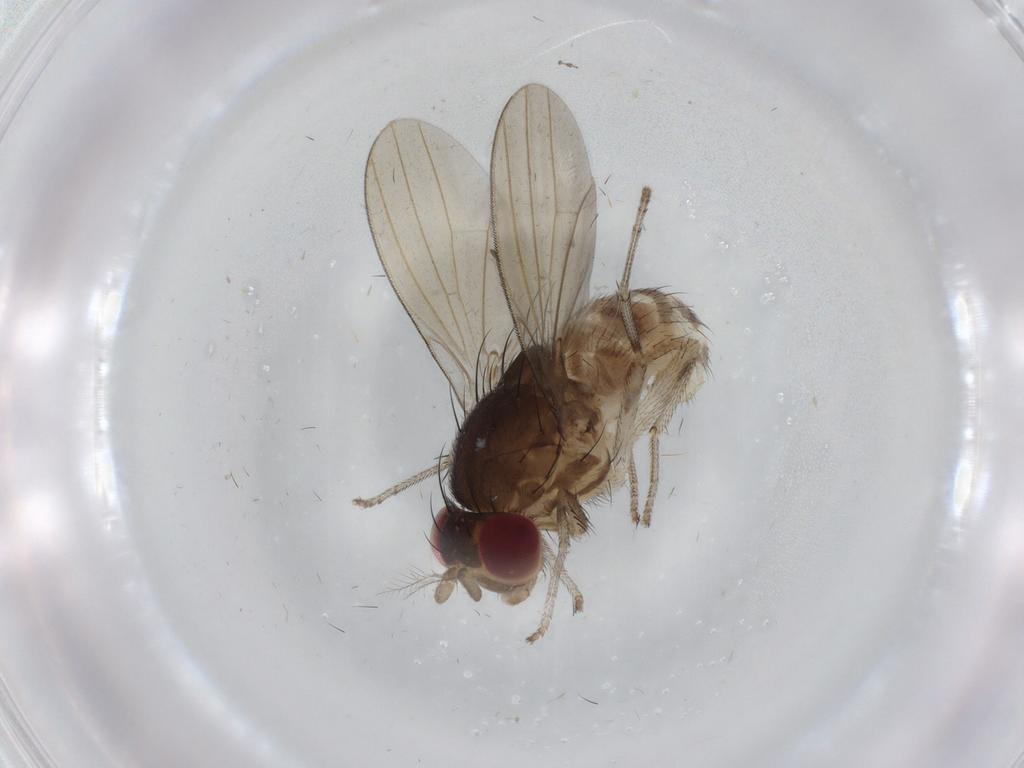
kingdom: Animalia
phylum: Arthropoda
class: Insecta
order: Diptera
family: Cecidomyiidae
